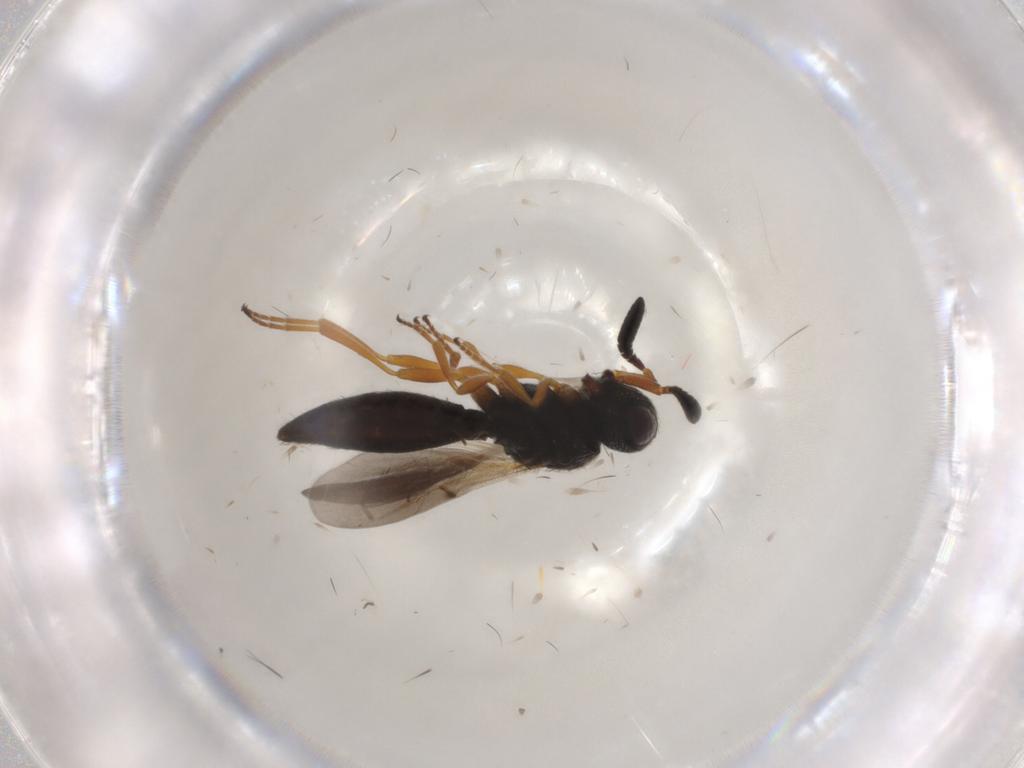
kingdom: Animalia
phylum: Arthropoda
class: Insecta
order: Hymenoptera
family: Scelionidae
